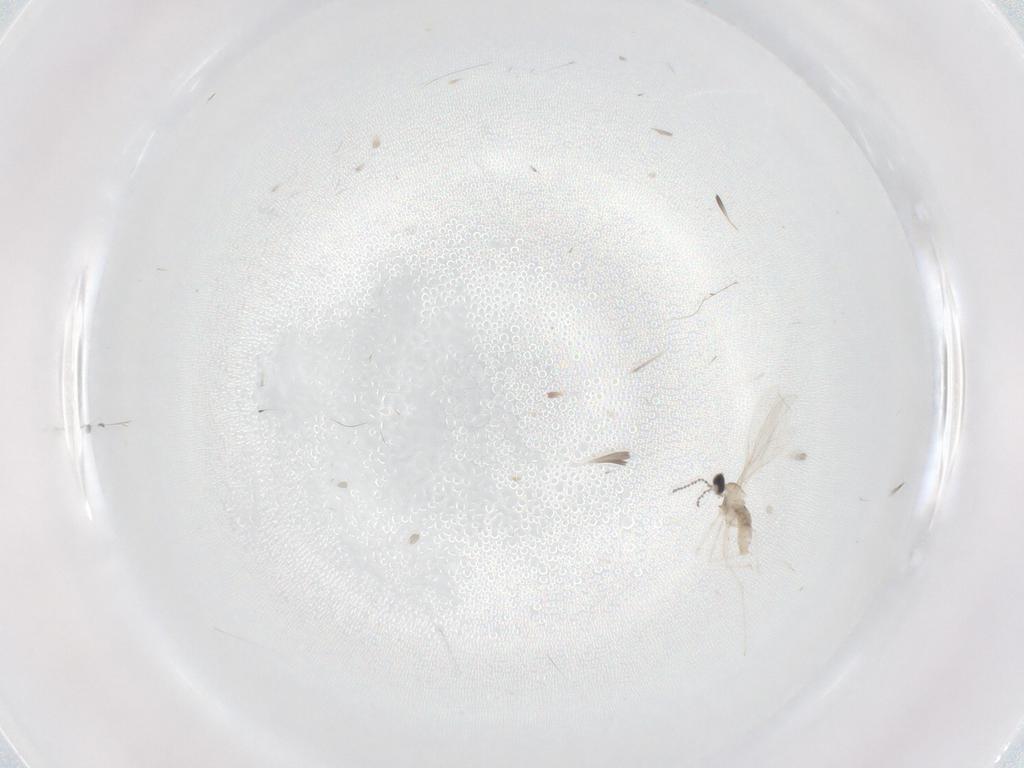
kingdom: Animalia
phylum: Arthropoda
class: Insecta
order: Diptera
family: Cecidomyiidae
